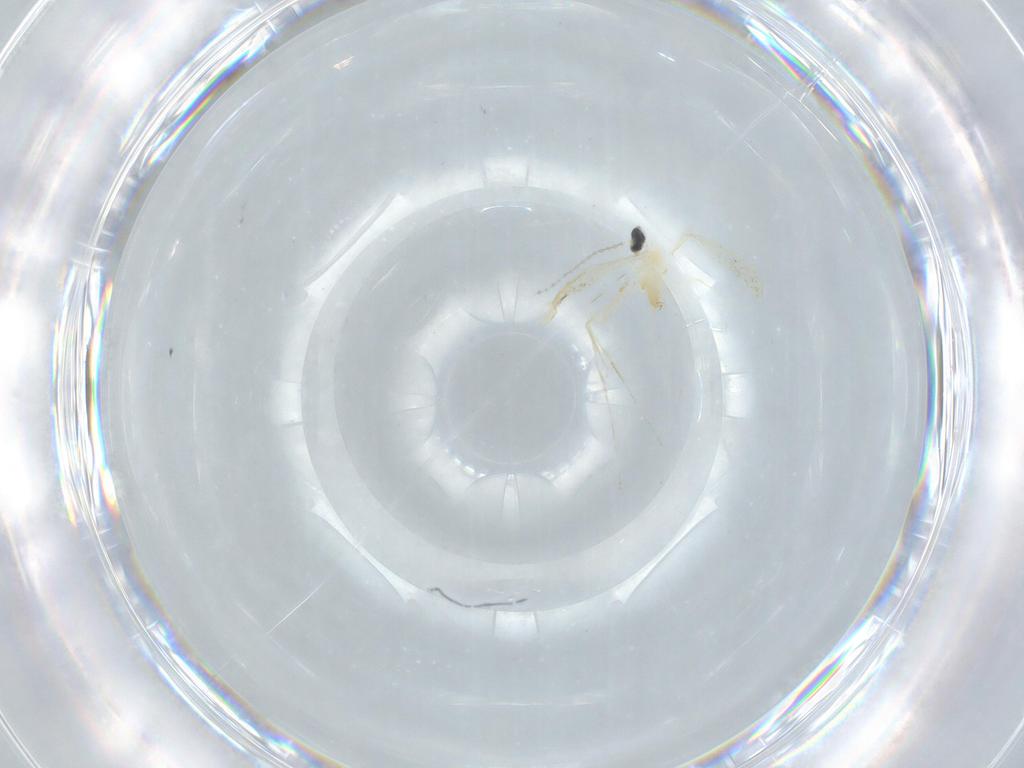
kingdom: Animalia
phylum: Arthropoda
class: Insecta
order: Diptera
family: Cecidomyiidae
